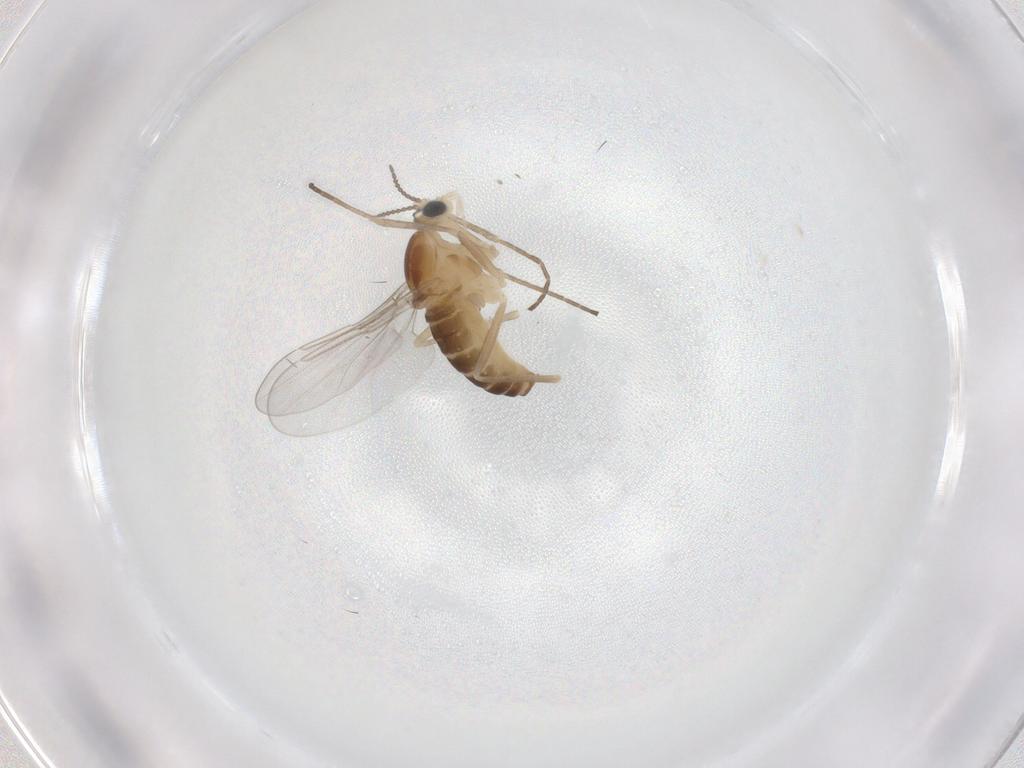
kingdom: Animalia
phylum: Arthropoda
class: Insecta
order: Diptera
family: Cecidomyiidae
